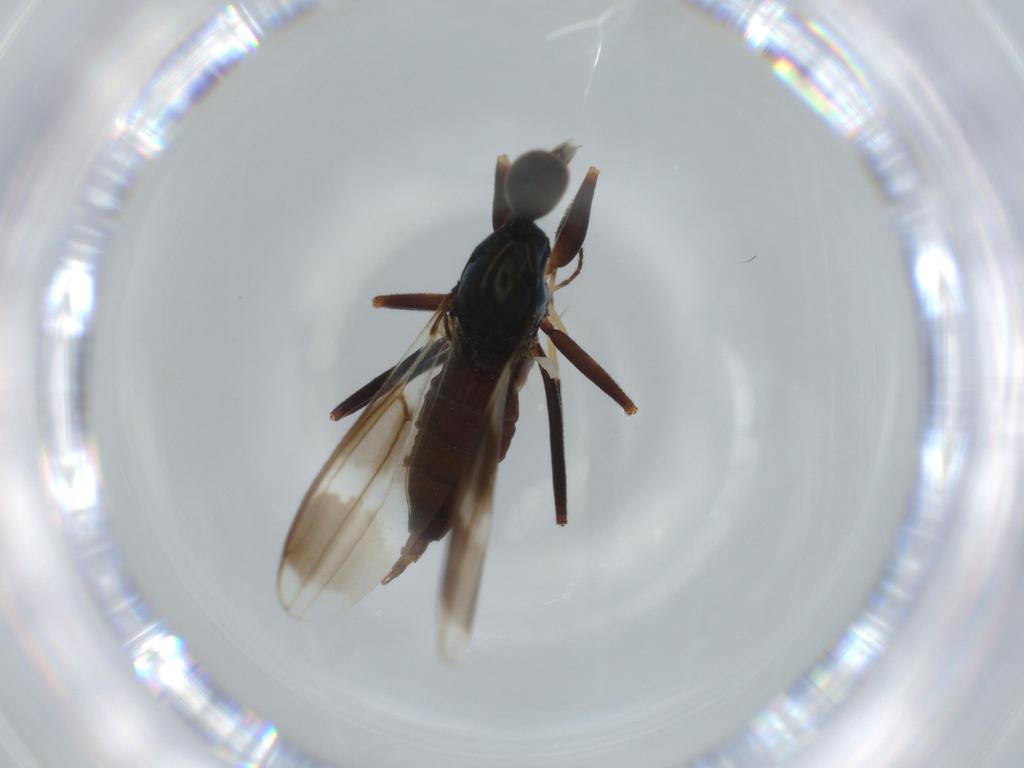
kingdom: Animalia
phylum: Arthropoda
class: Insecta
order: Diptera
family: Hybotidae
